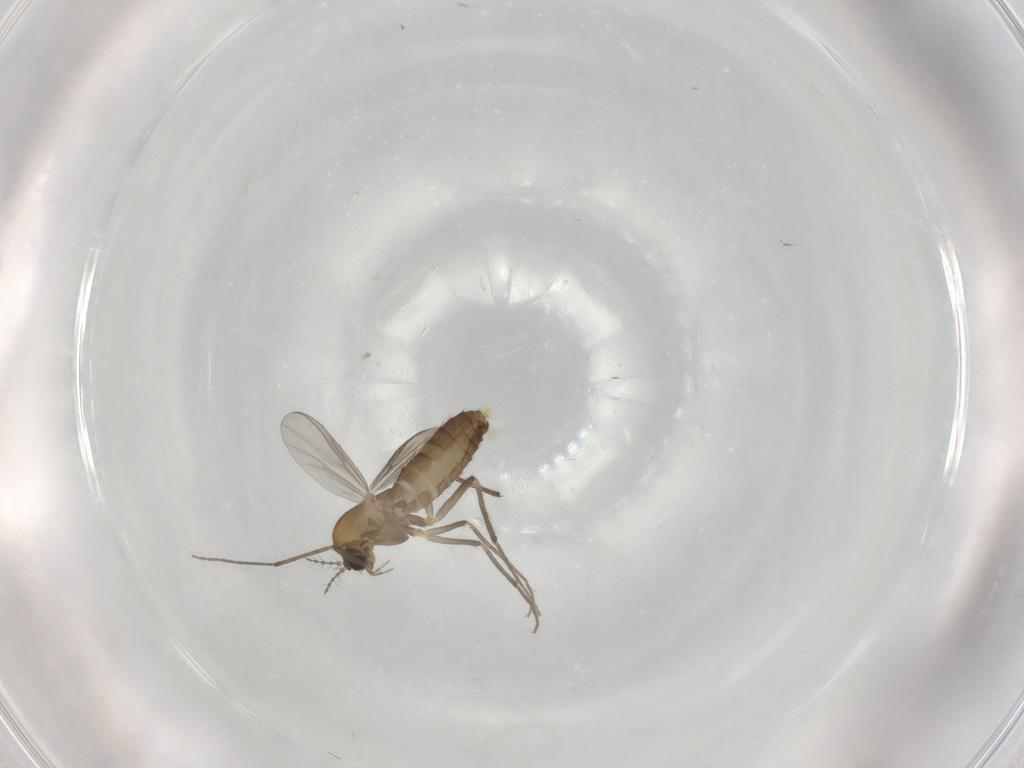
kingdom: Animalia
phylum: Arthropoda
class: Insecta
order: Diptera
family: Chironomidae
